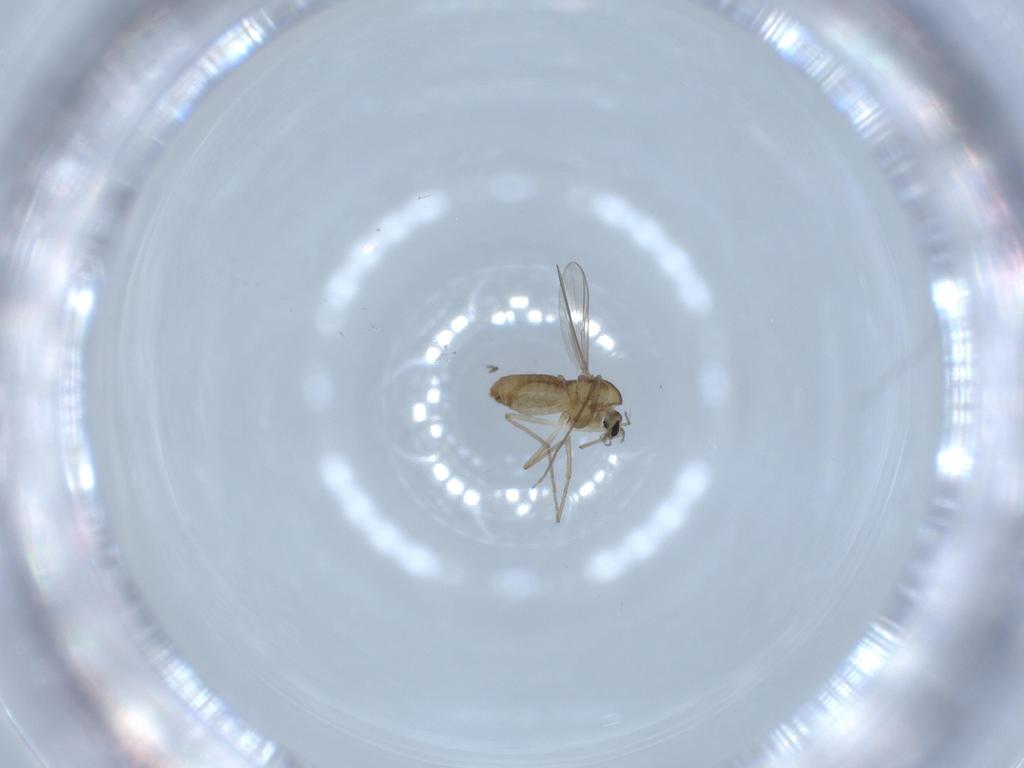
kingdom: Animalia
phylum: Arthropoda
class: Insecta
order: Diptera
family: Chironomidae
